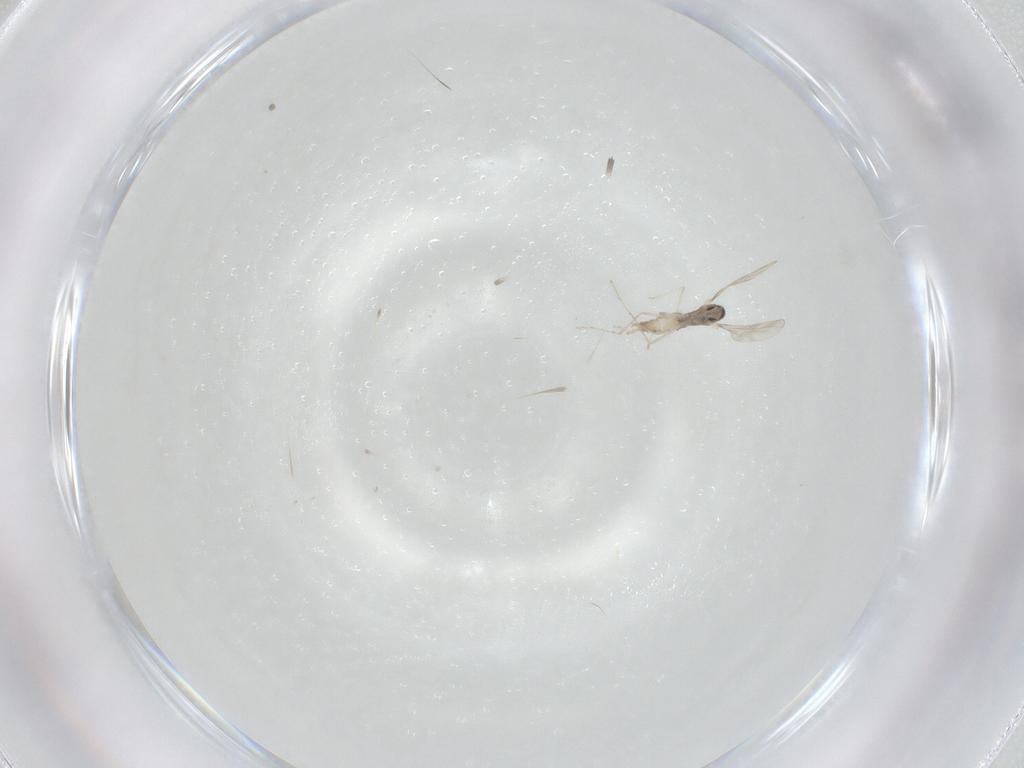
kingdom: Animalia
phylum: Arthropoda
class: Insecta
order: Diptera
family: Cecidomyiidae
